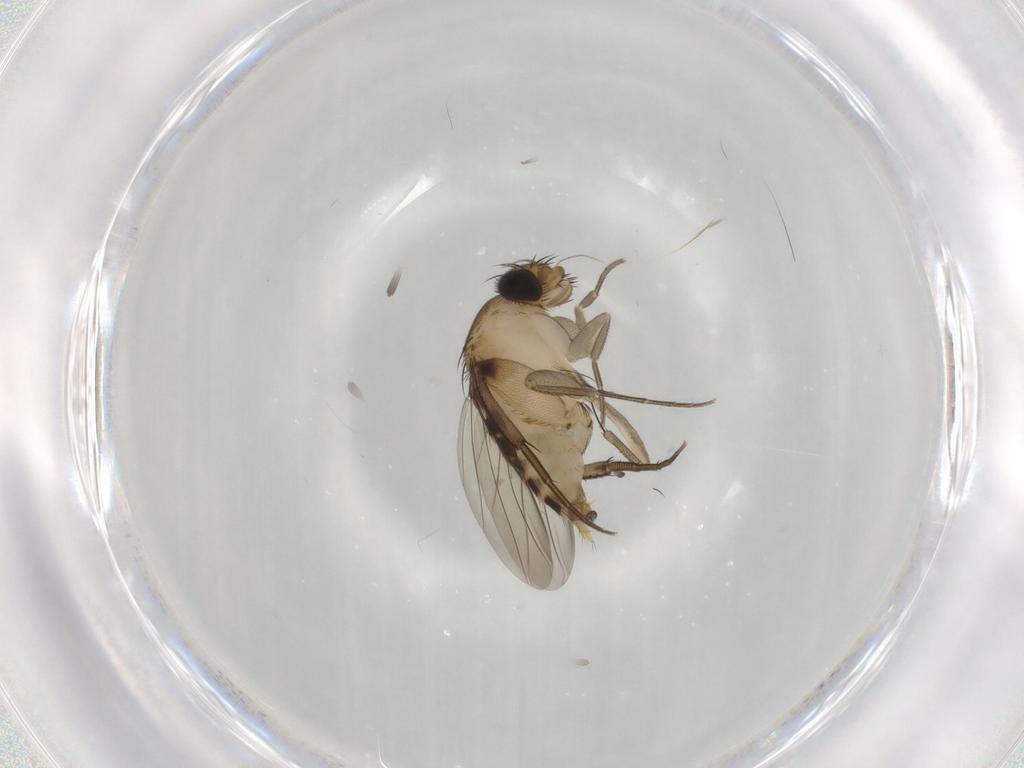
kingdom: Animalia
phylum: Arthropoda
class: Insecta
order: Diptera
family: Phoridae
